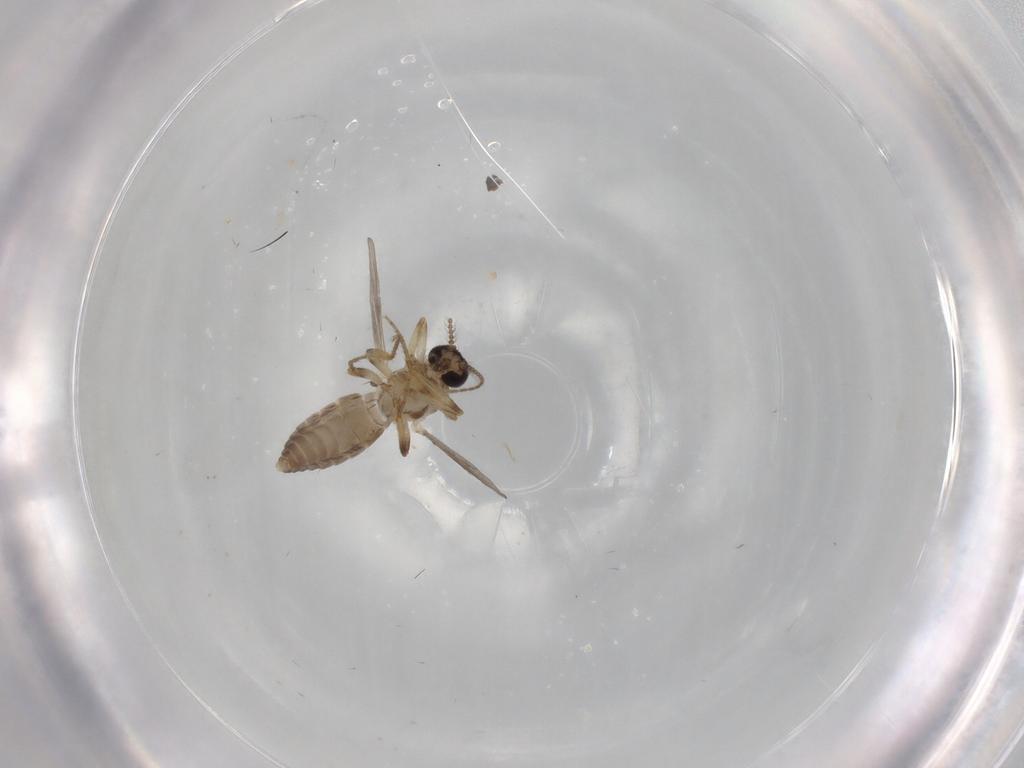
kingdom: Animalia
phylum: Arthropoda
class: Insecta
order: Diptera
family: Ceratopogonidae
